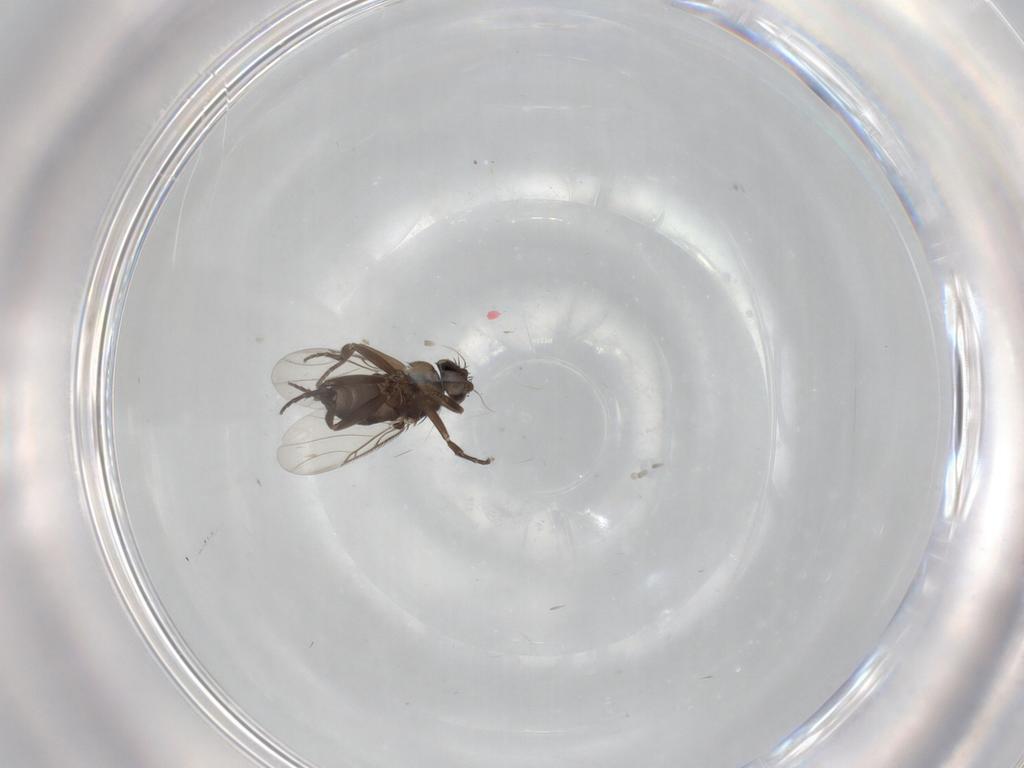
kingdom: Animalia
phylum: Arthropoda
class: Insecta
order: Diptera
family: Phoridae
